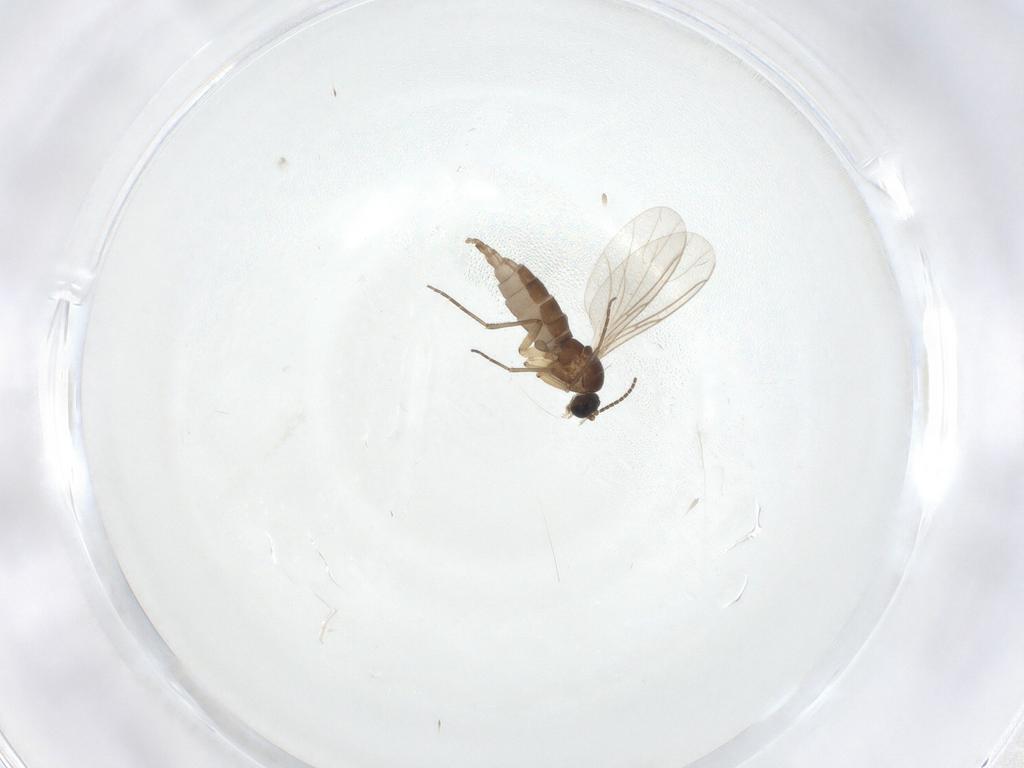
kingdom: Animalia
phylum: Arthropoda
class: Insecta
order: Diptera
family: Sciaridae
